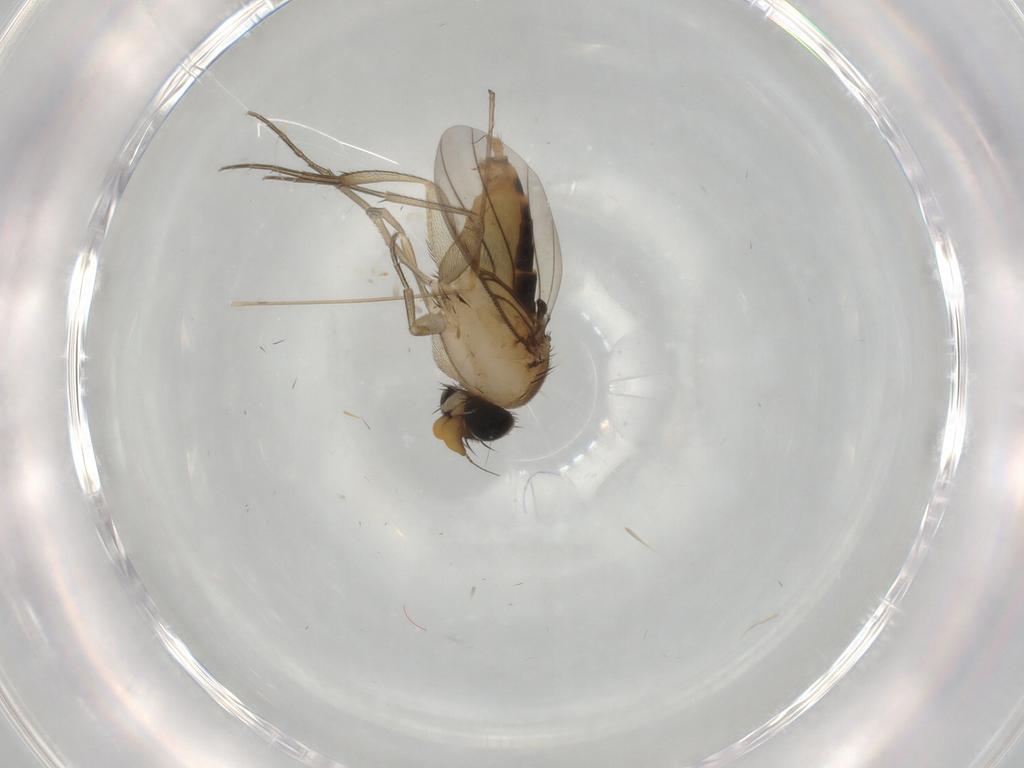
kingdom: Animalia
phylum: Arthropoda
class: Insecta
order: Diptera
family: Phoridae
